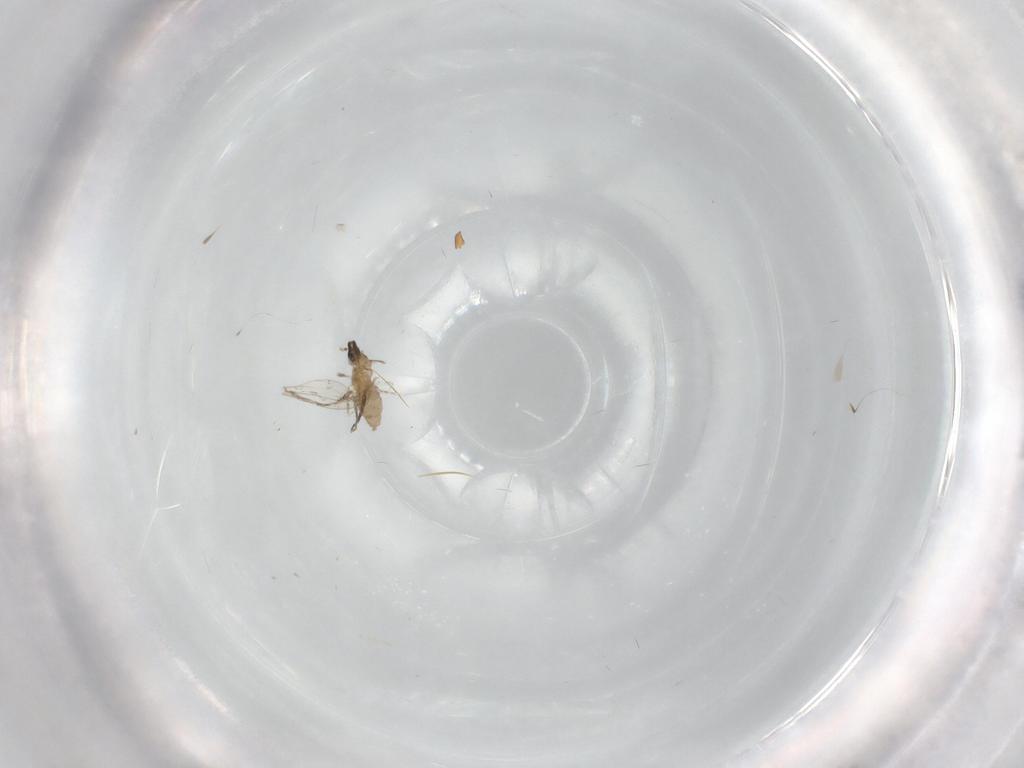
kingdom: Animalia
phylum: Arthropoda
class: Insecta
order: Diptera
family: Cecidomyiidae
